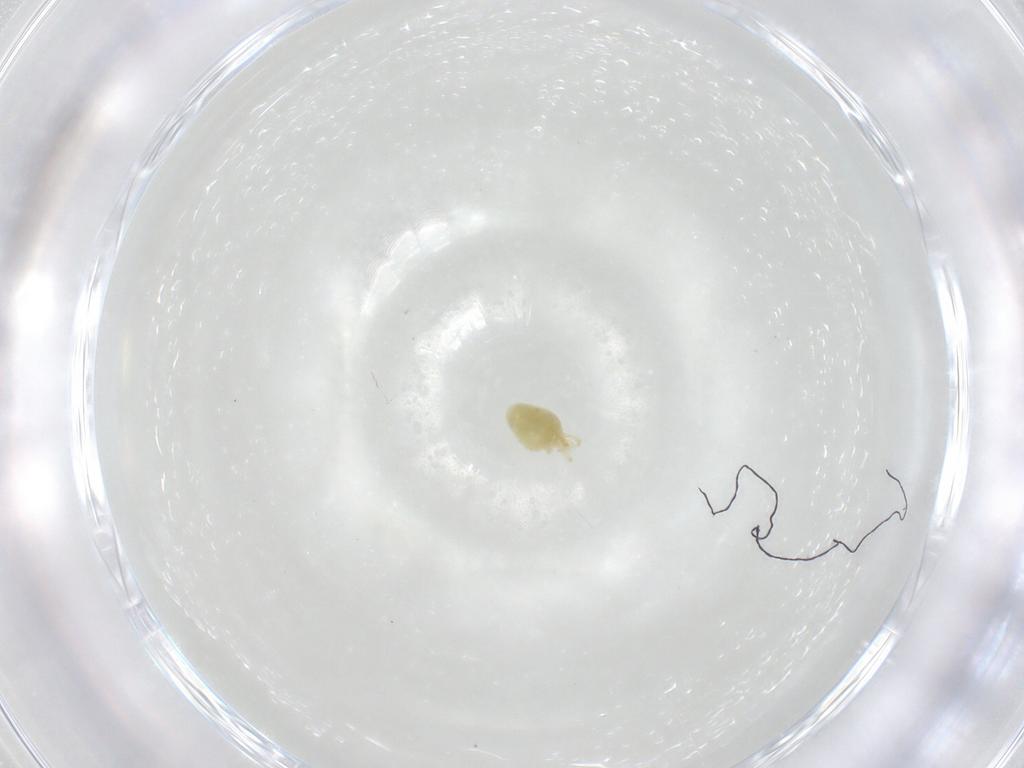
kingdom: Animalia
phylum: Arthropoda
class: Arachnida
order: Trombidiformes
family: Erythraeidae
